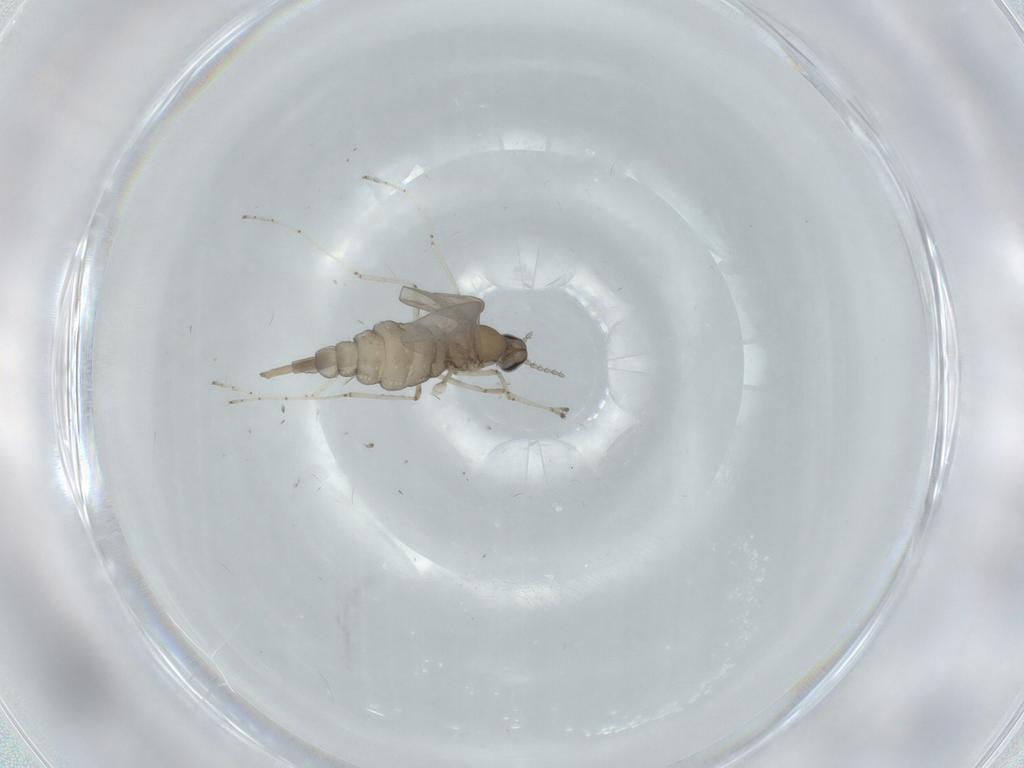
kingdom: Animalia
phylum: Arthropoda
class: Insecta
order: Diptera
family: Cecidomyiidae
